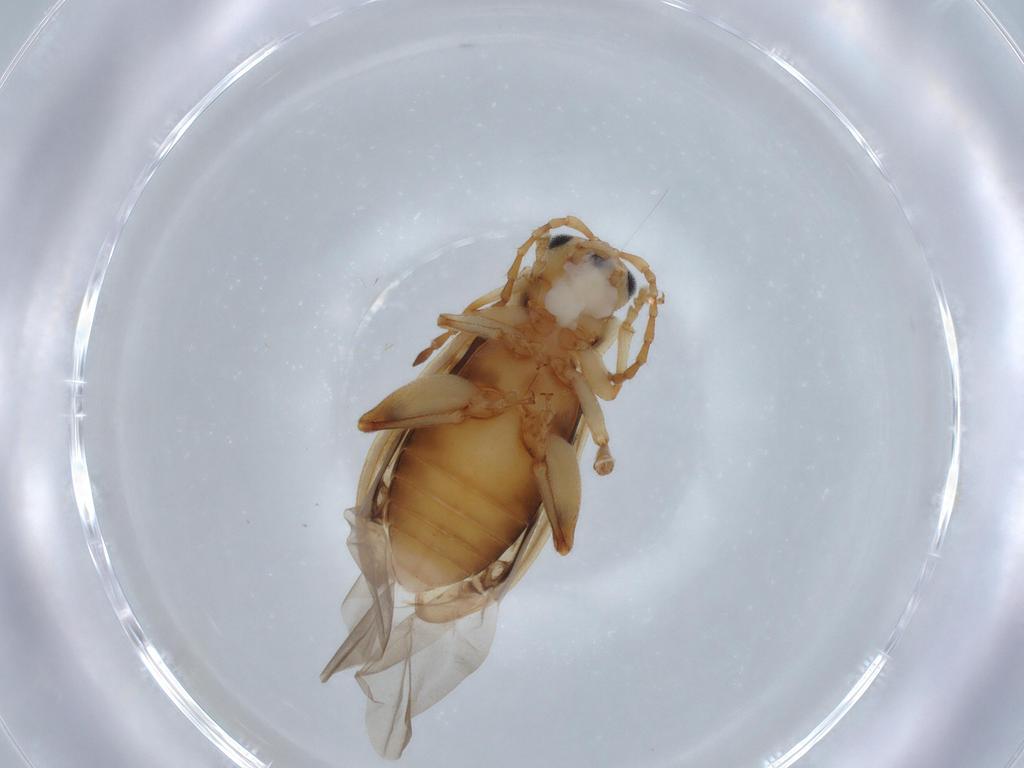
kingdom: Animalia
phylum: Arthropoda
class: Insecta
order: Coleoptera
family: Chrysomelidae
